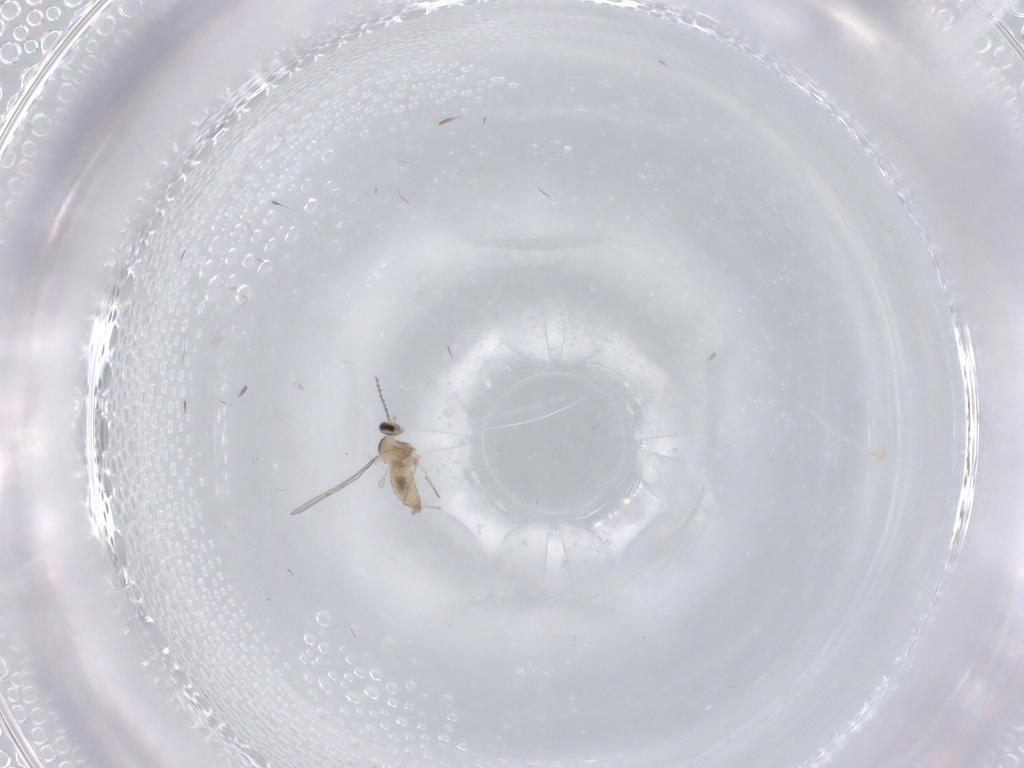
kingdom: Animalia
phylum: Arthropoda
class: Insecta
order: Diptera
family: Cecidomyiidae
